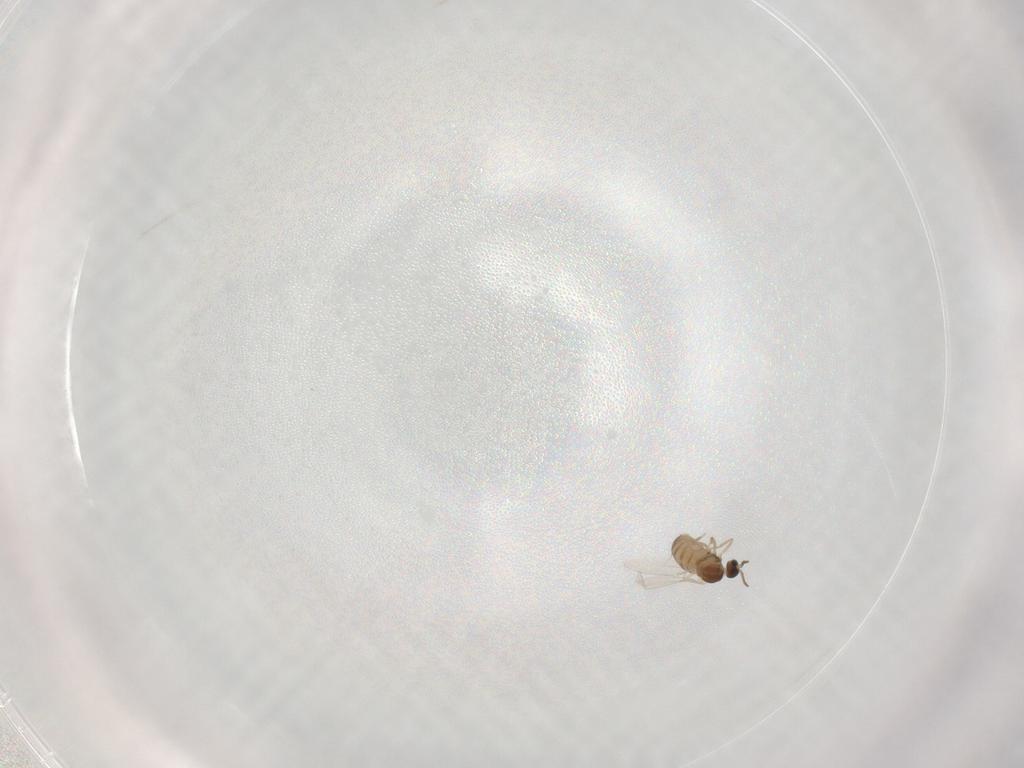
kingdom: Animalia
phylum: Arthropoda
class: Insecta
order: Diptera
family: Cecidomyiidae
